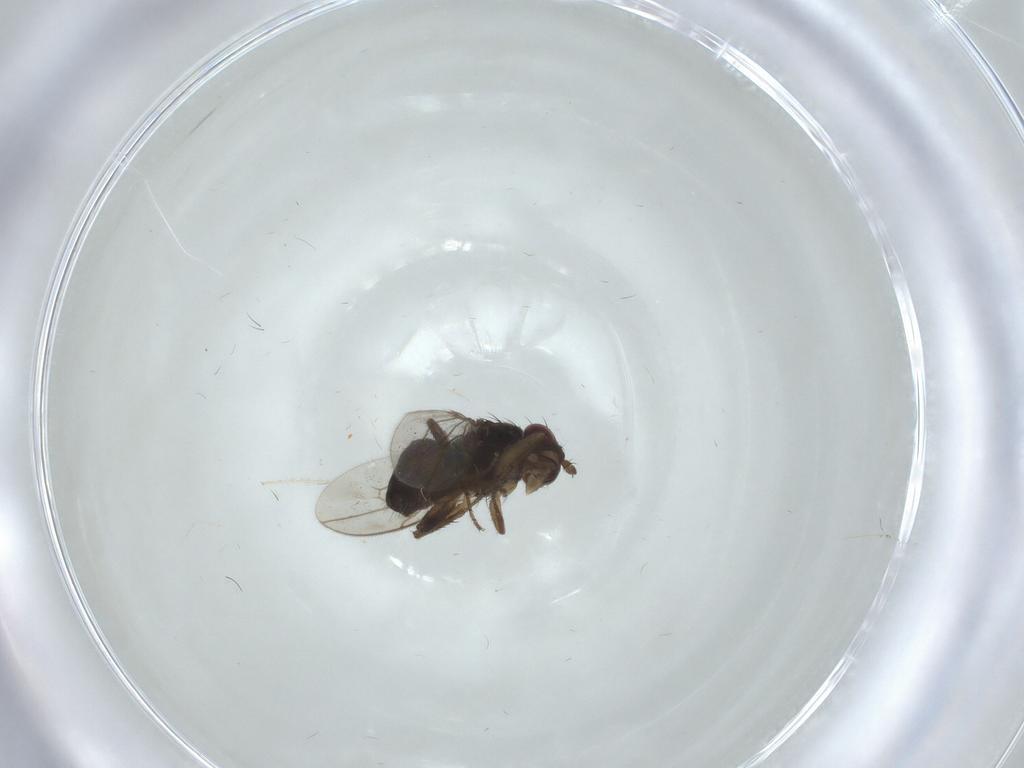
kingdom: Animalia
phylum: Arthropoda
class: Insecta
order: Diptera
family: Sphaeroceridae
